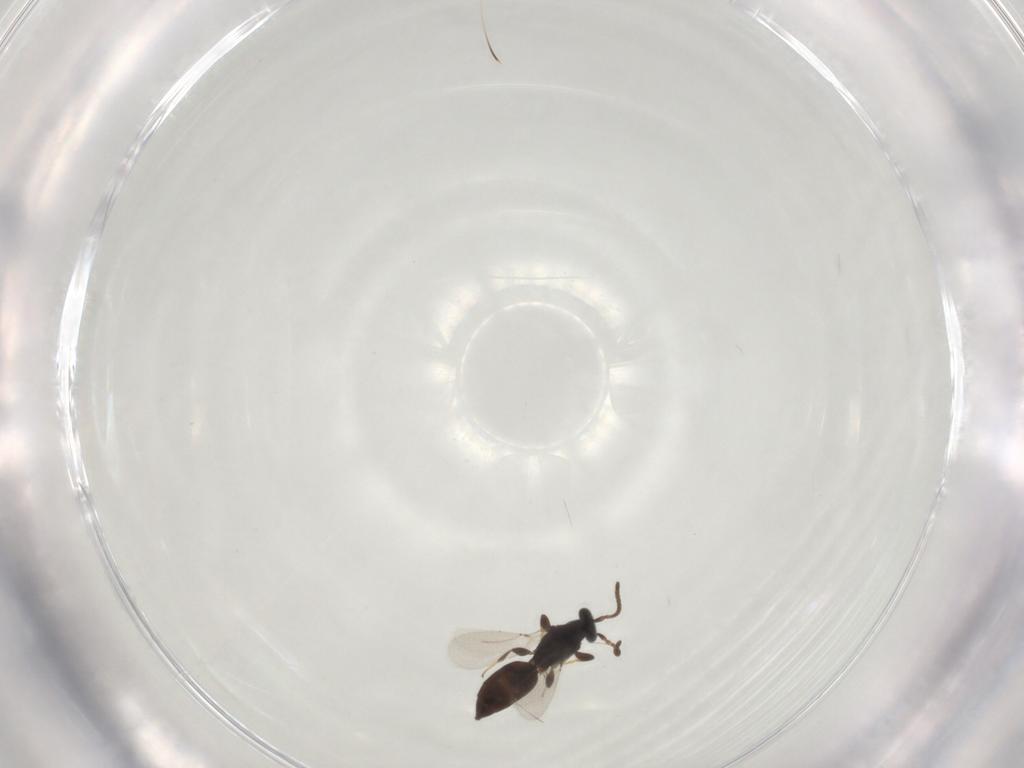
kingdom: Animalia
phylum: Arthropoda
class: Insecta
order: Hymenoptera
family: Bethylidae
